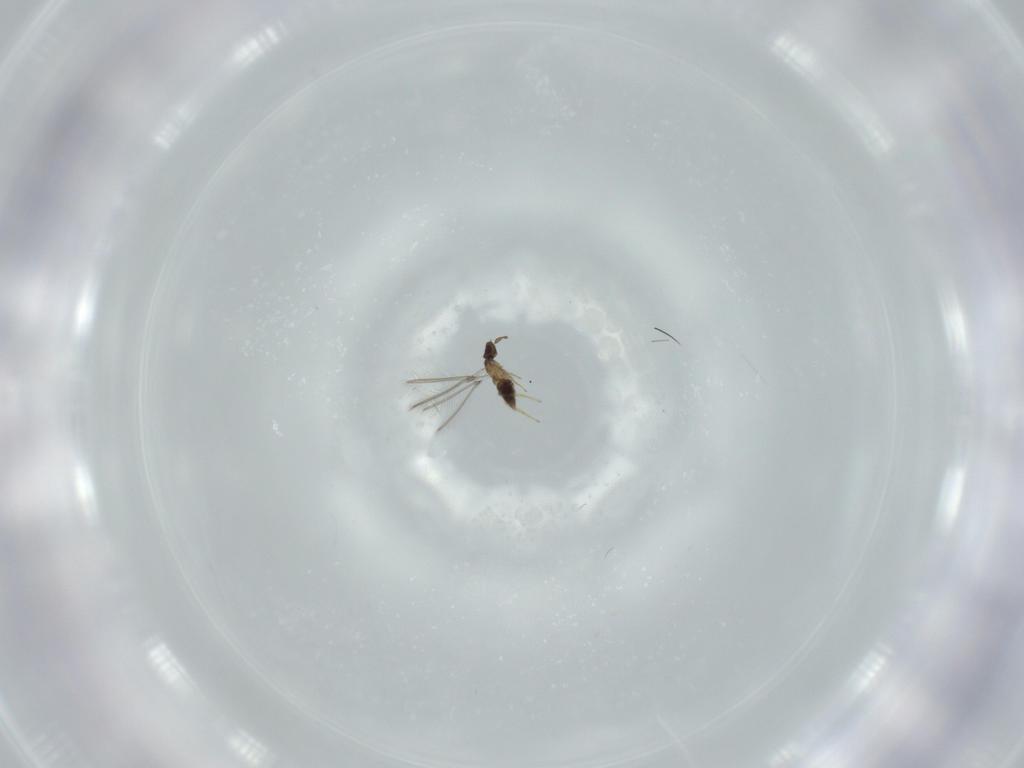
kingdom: Animalia
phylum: Arthropoda
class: Insecta
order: Hymenoptera
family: Mymaridae
